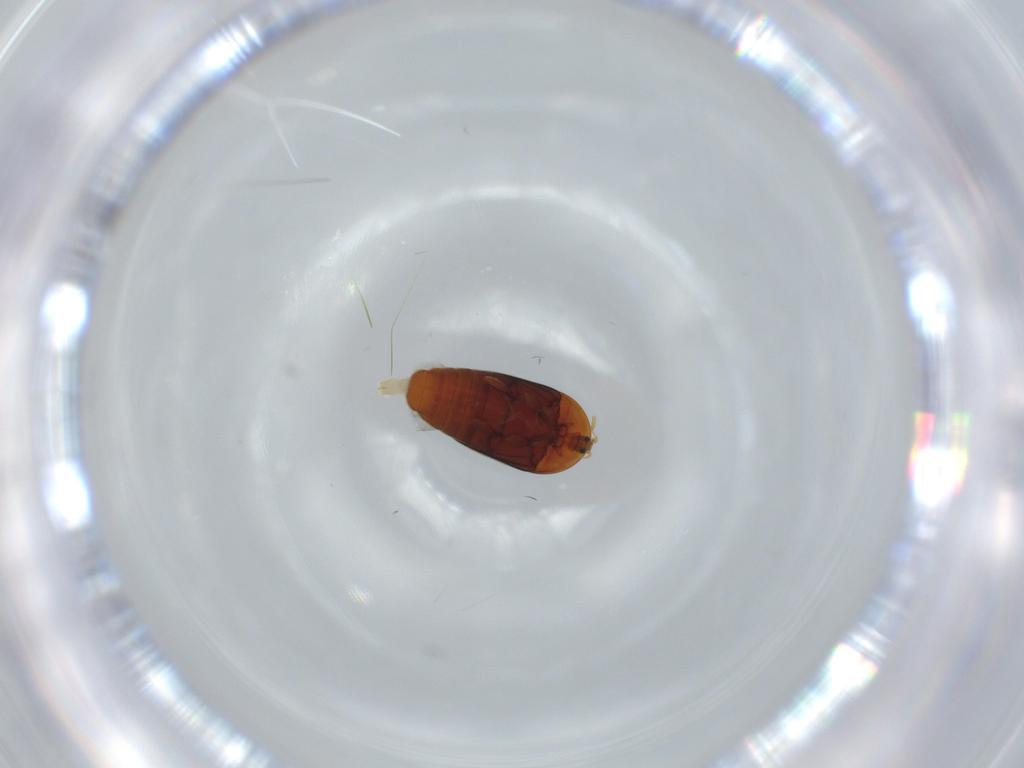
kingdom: Animalia
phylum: Arthropoda
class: Insecta
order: Coleoptera
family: Corylophidae
